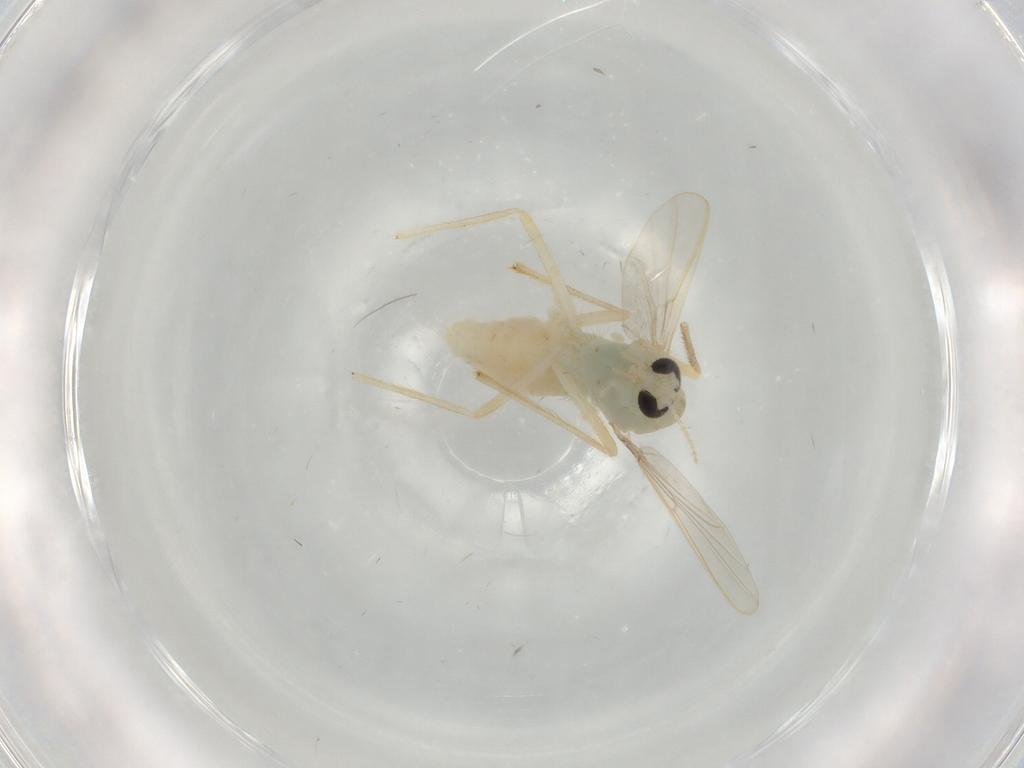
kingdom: Animalia
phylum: Arthropoda
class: Insecta
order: Diptera
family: Chironomidae
